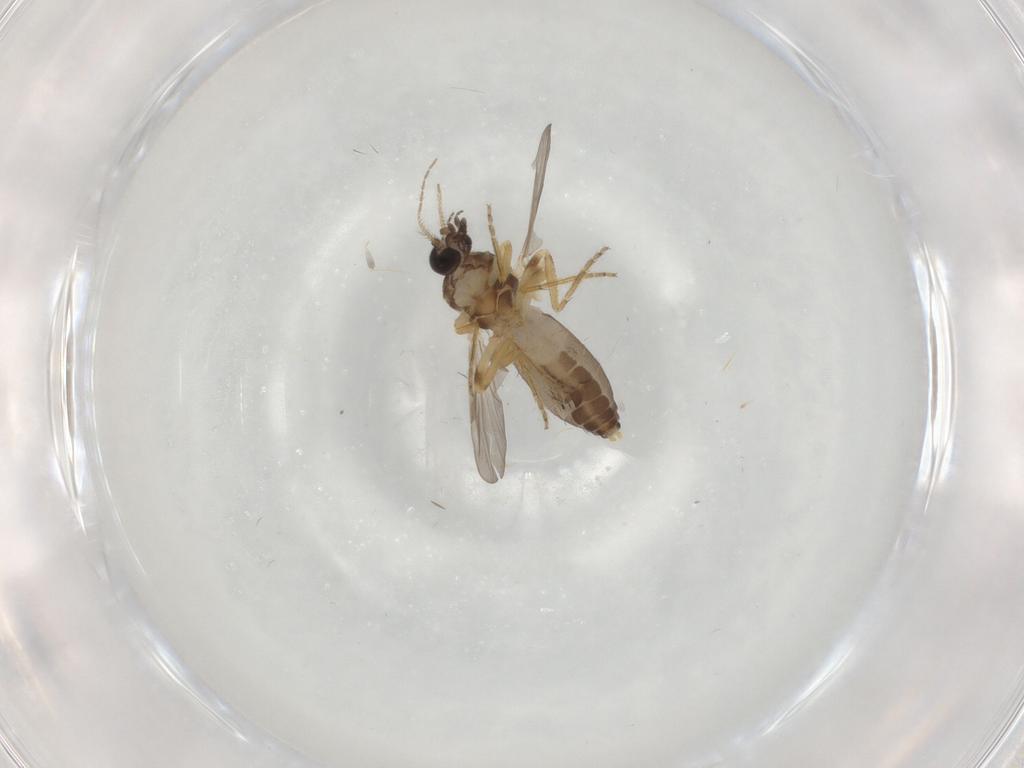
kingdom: Animalia
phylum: Arthropoda
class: Insecta
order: Diptera
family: Ceratopogonidae
